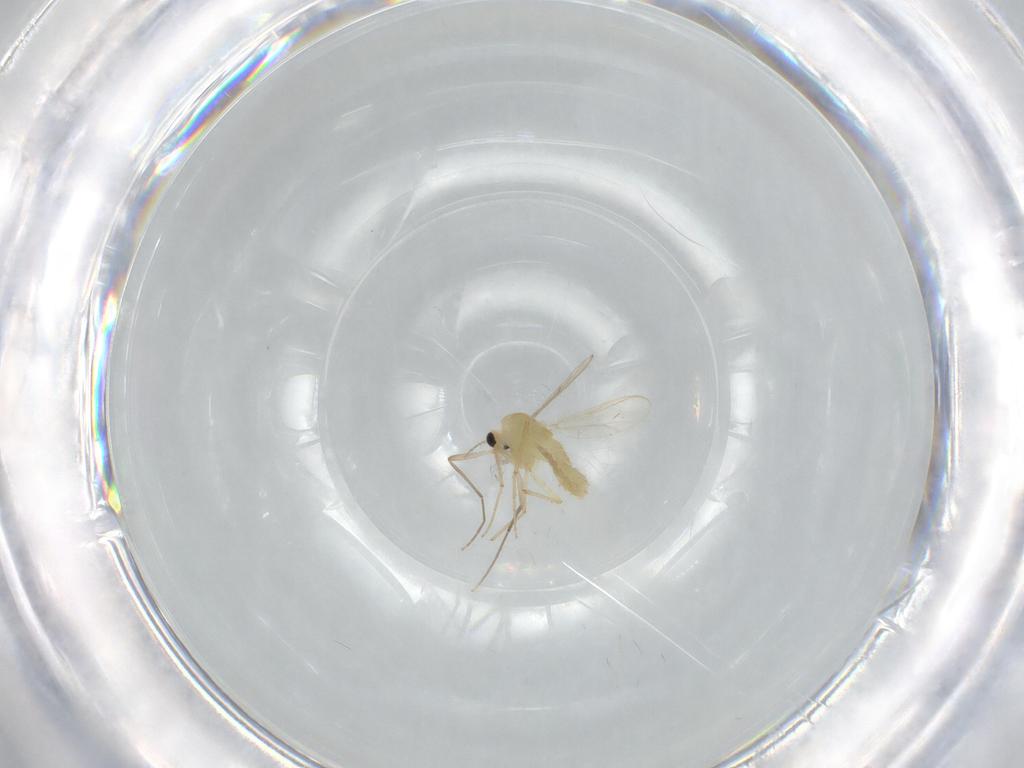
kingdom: Animalia
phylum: Arthropoda
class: Insecta
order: Diptera
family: Chironomidae
